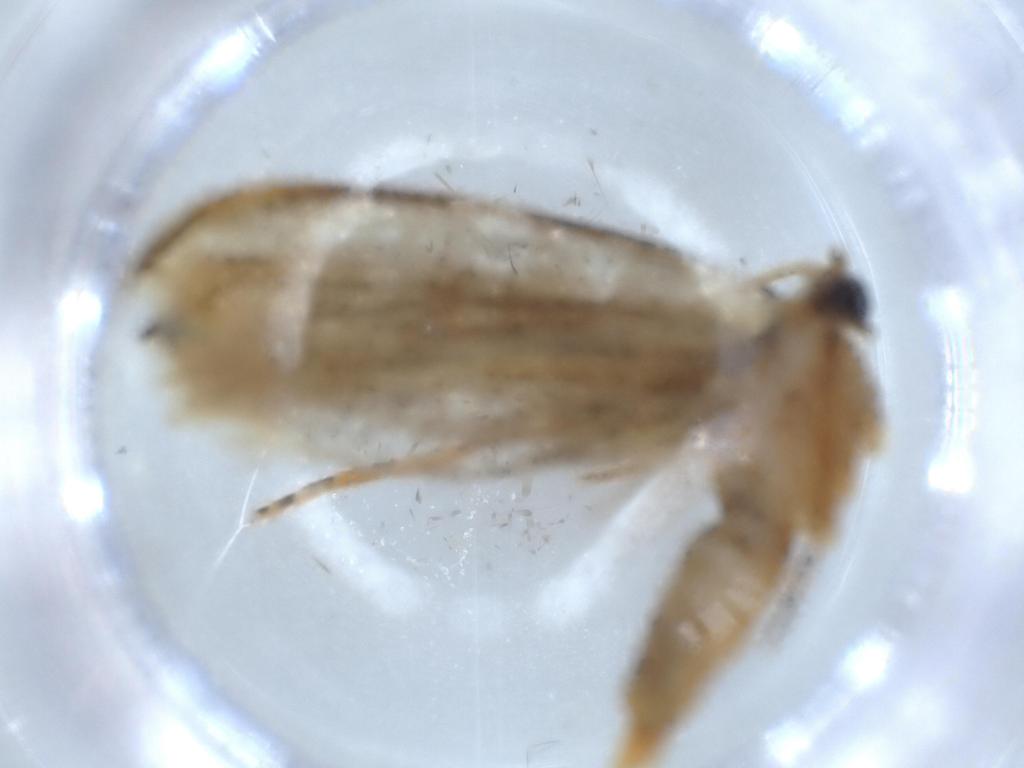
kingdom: Animalia
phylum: Arthropoda
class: Insecta
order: Lepidoptera
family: Tineidae
